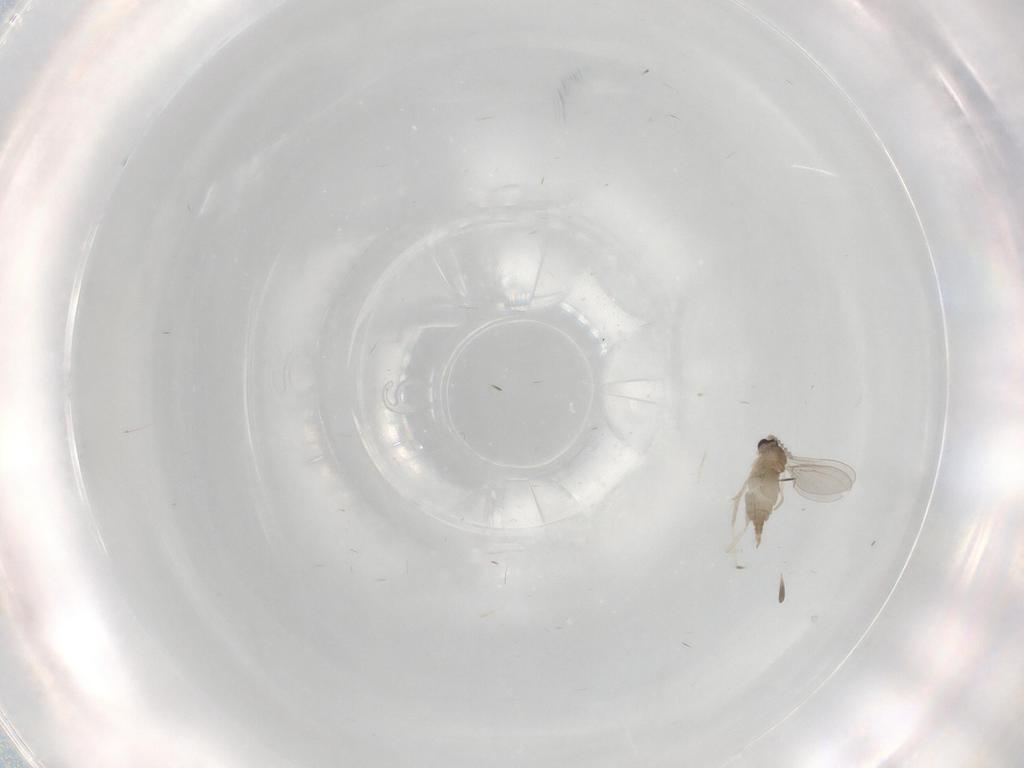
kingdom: Animalia
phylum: Arthropoda
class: Insecta
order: Diptera
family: Cecidomyiidae
